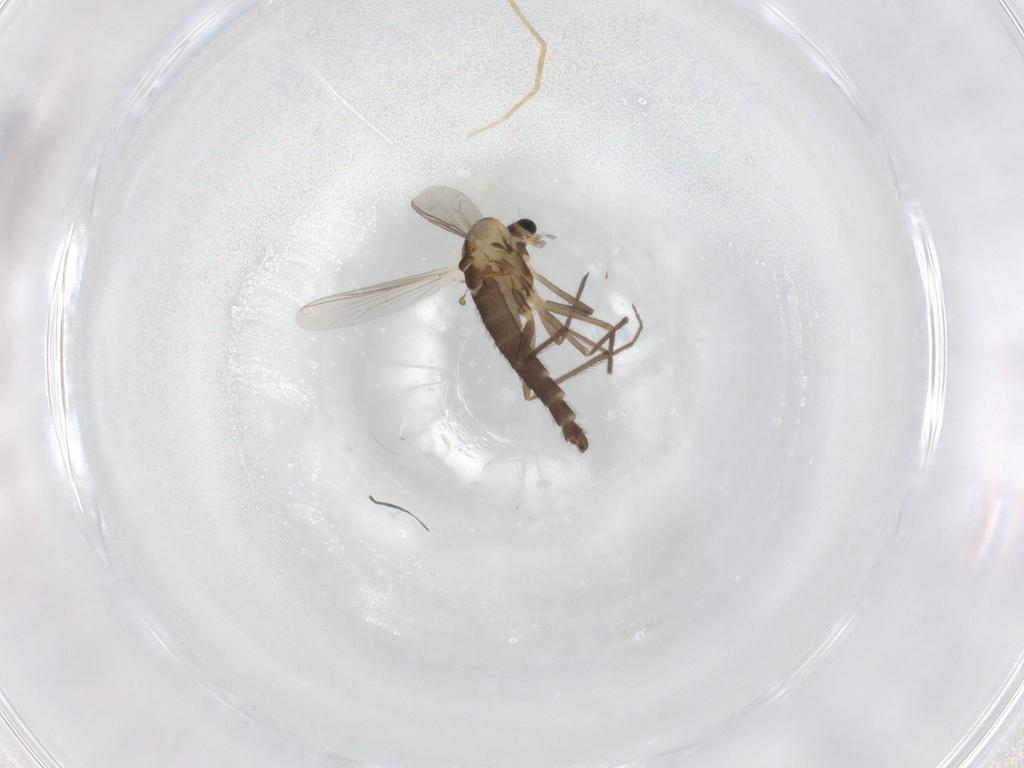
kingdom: Animalia
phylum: Arthropoda
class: Insecta
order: Diptera
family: Chironomidae
